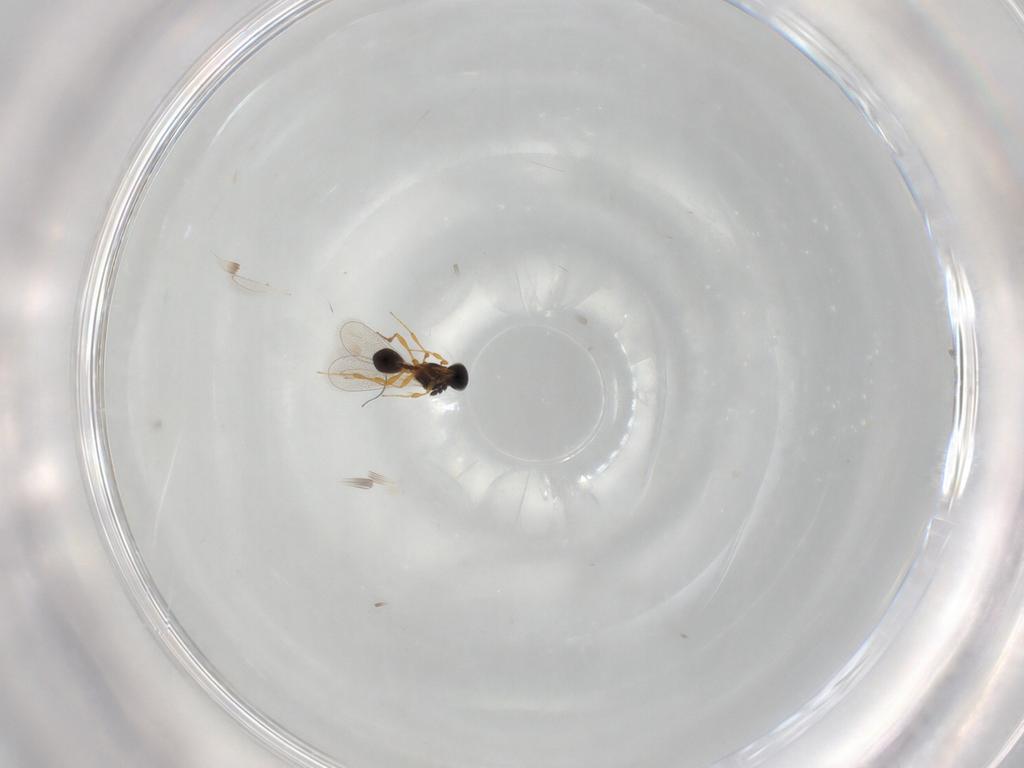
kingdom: Animalia
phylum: Arthropoda
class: Insecta
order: Hymenoptera
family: Platygastridae
